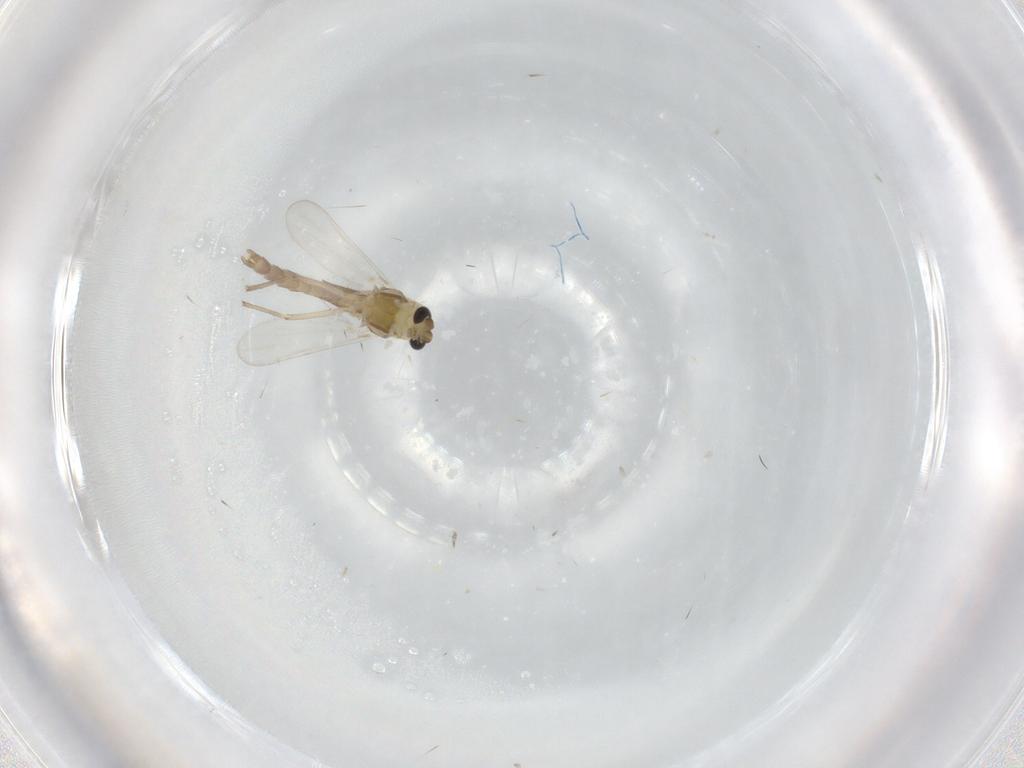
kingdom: Animalia
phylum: Arthropoda
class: Insecta
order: Diptera
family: Chironomidae
